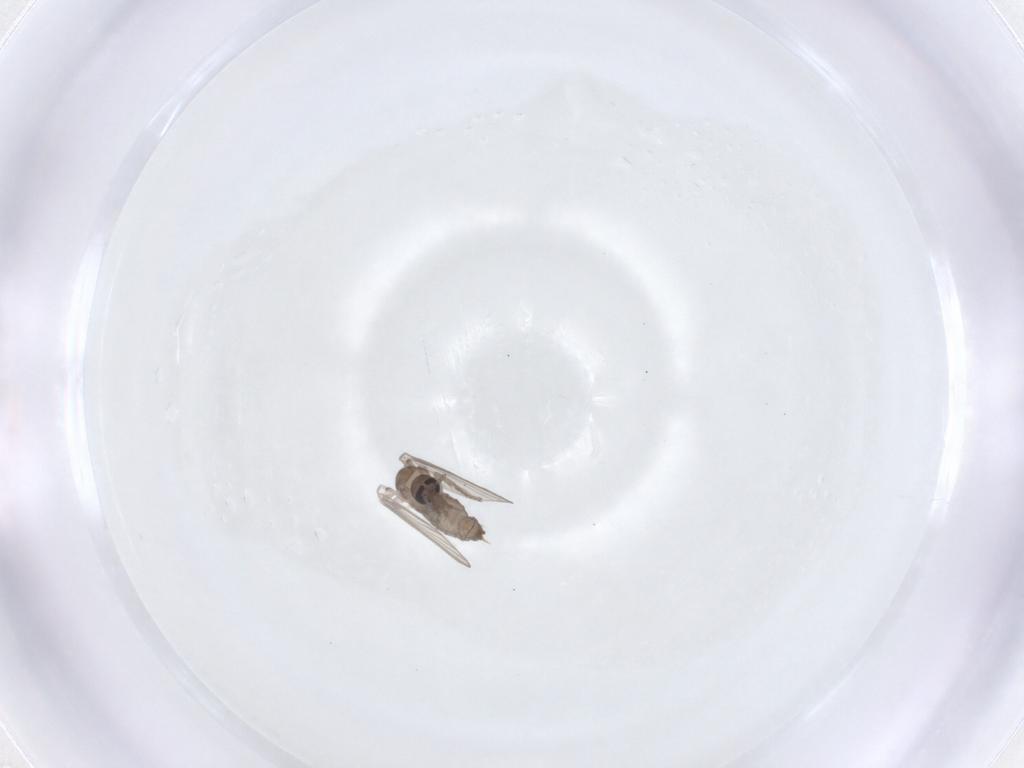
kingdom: Animalia
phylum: Arthropoda
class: Insecta
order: Diptera
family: Psychodidae
